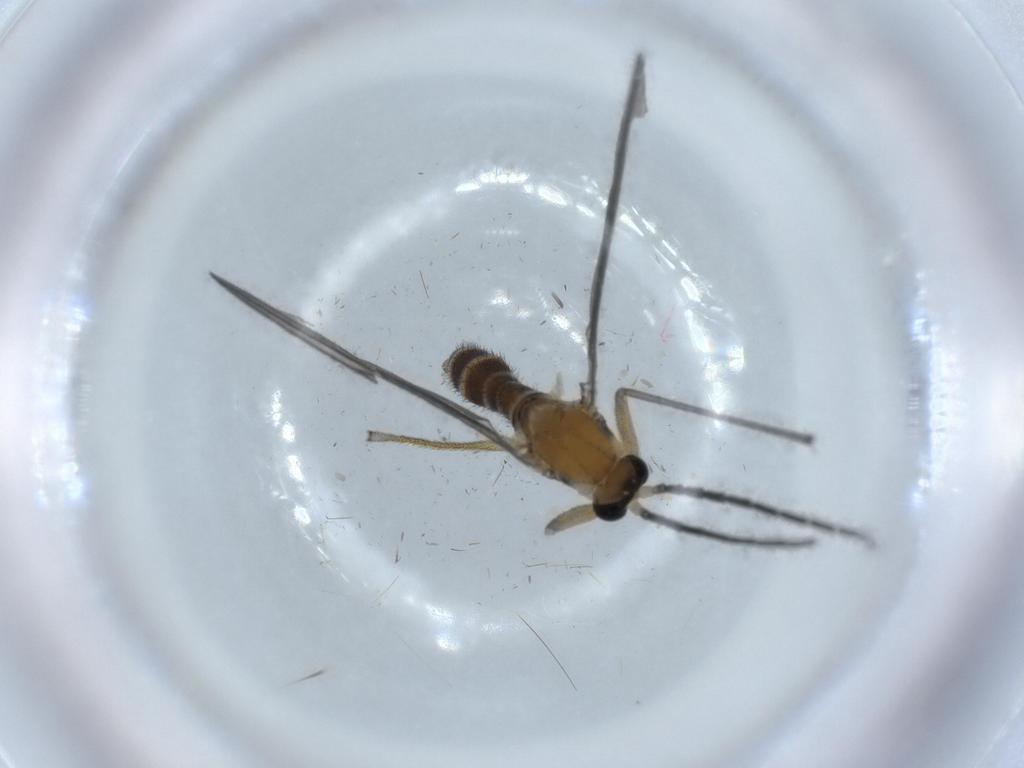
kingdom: Animalia
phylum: Arthropoda
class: Insecta
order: Diptera
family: Sciaridae
